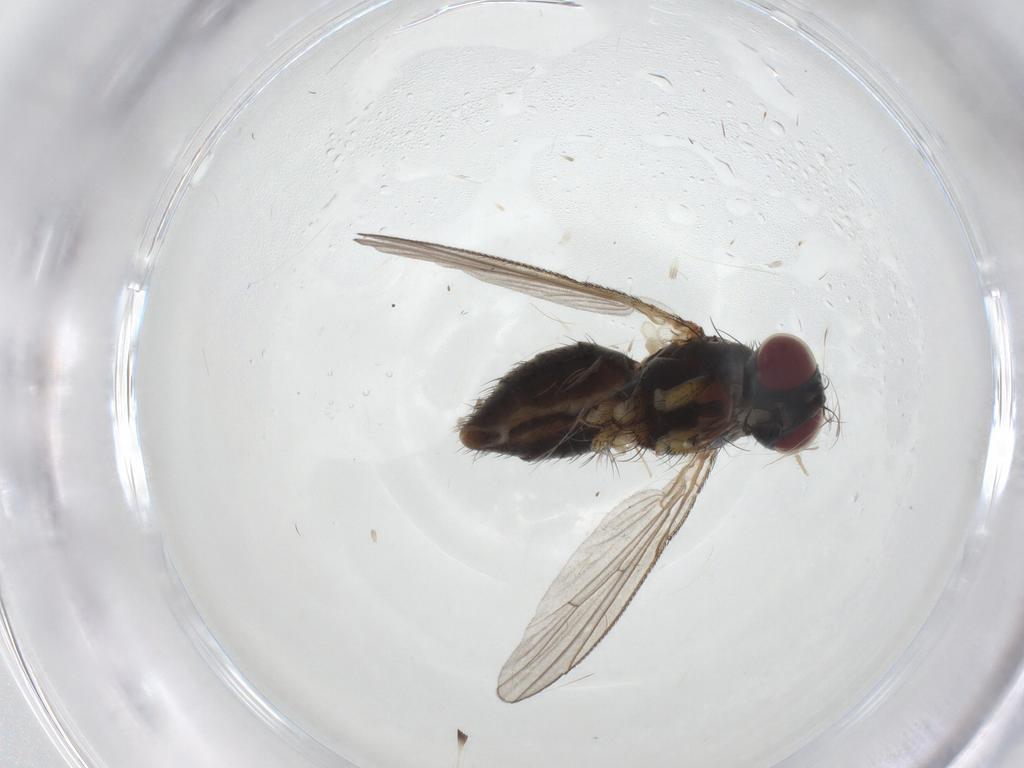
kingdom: Animalia
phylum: Arthropoda
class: Insecta
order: Diptera
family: Muscidae
